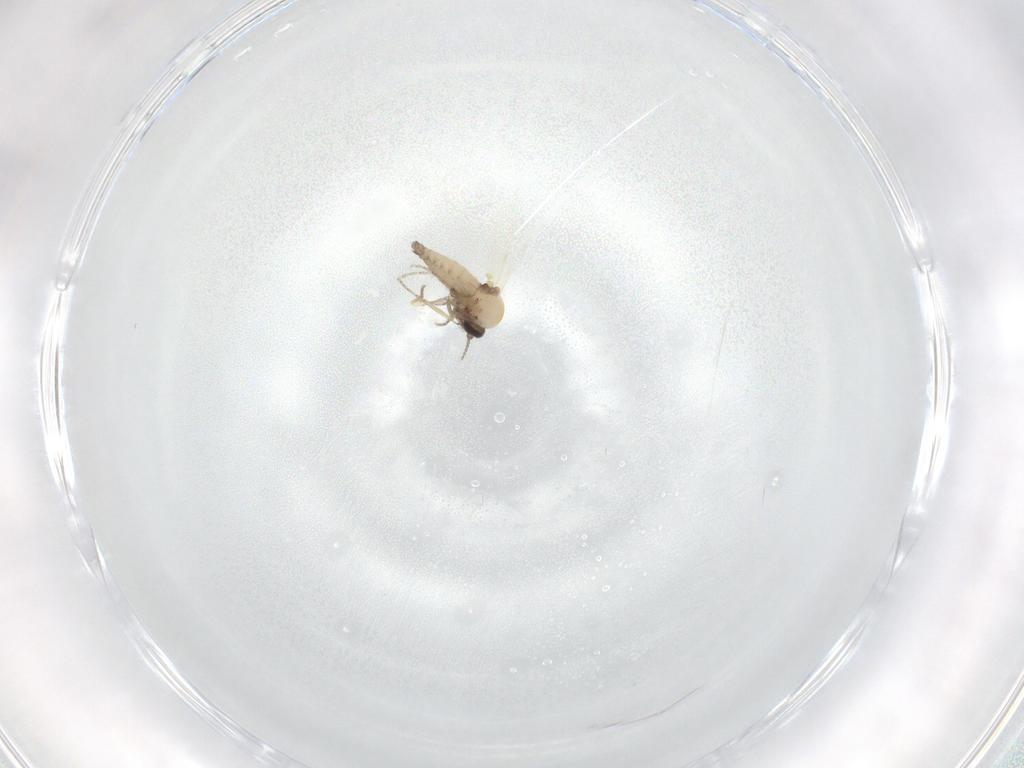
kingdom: Animalia
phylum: Arthropoda
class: Insecta
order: Diptera
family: Ceratopogonidae
